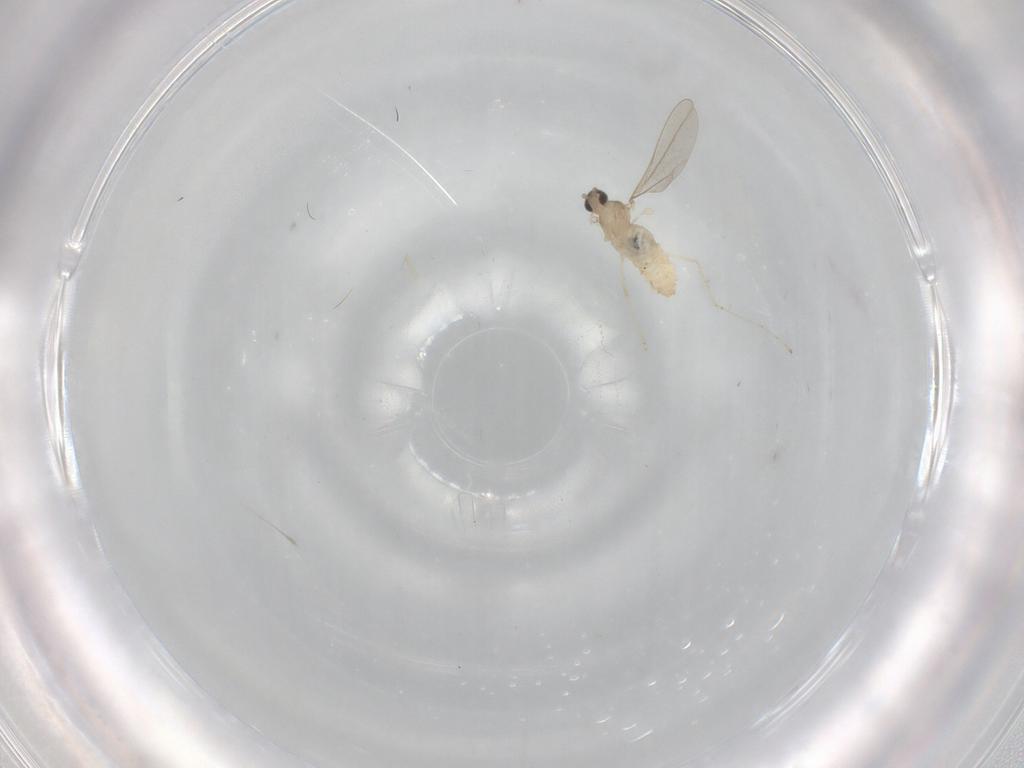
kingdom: Animalia
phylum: Arthropoda
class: Insecta
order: Diptera
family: Cecidomyiidae
